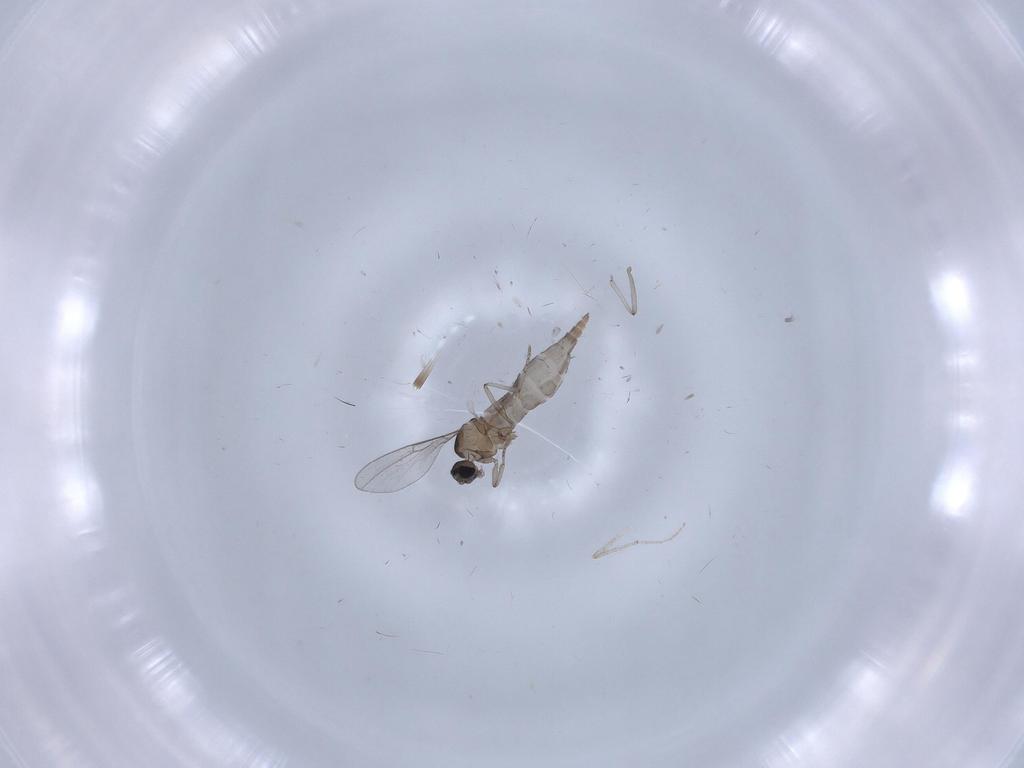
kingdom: Animalia
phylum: Arthropoda
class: Insecta
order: Diptera
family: Cecidomyiidae
